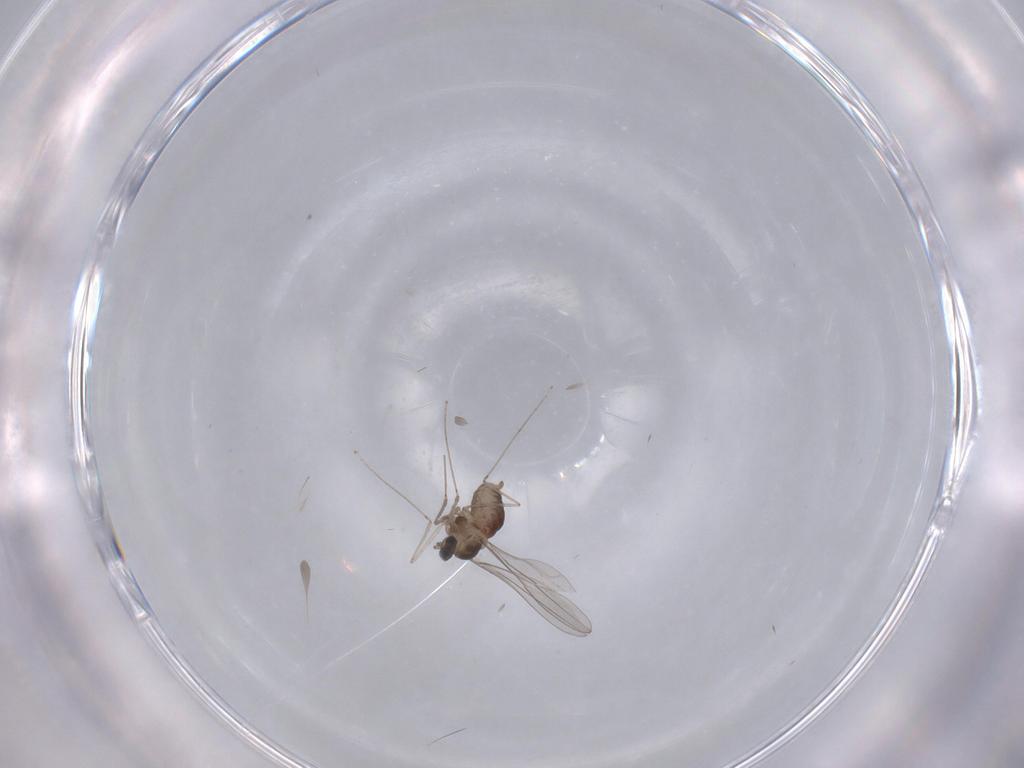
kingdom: Animalia
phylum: Arthropoda
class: Insecta
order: Diptera
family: Cecidomyiidae
